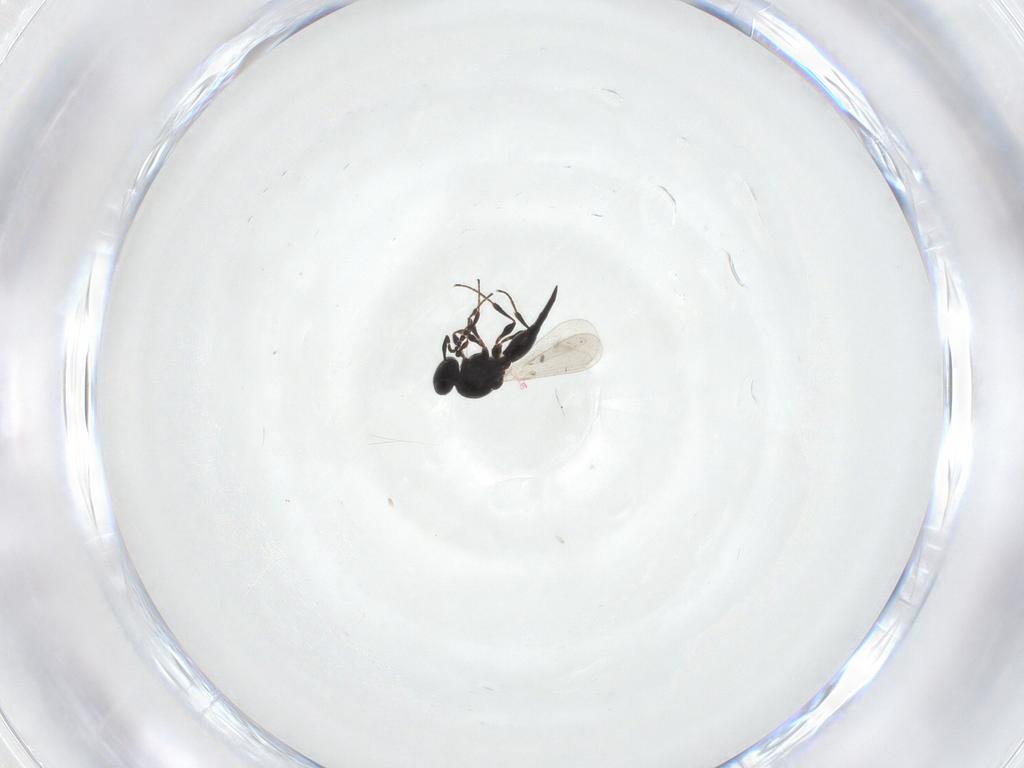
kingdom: Animalia
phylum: Arthropoda
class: Insecta
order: Hymenoptera
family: Platygastridae
